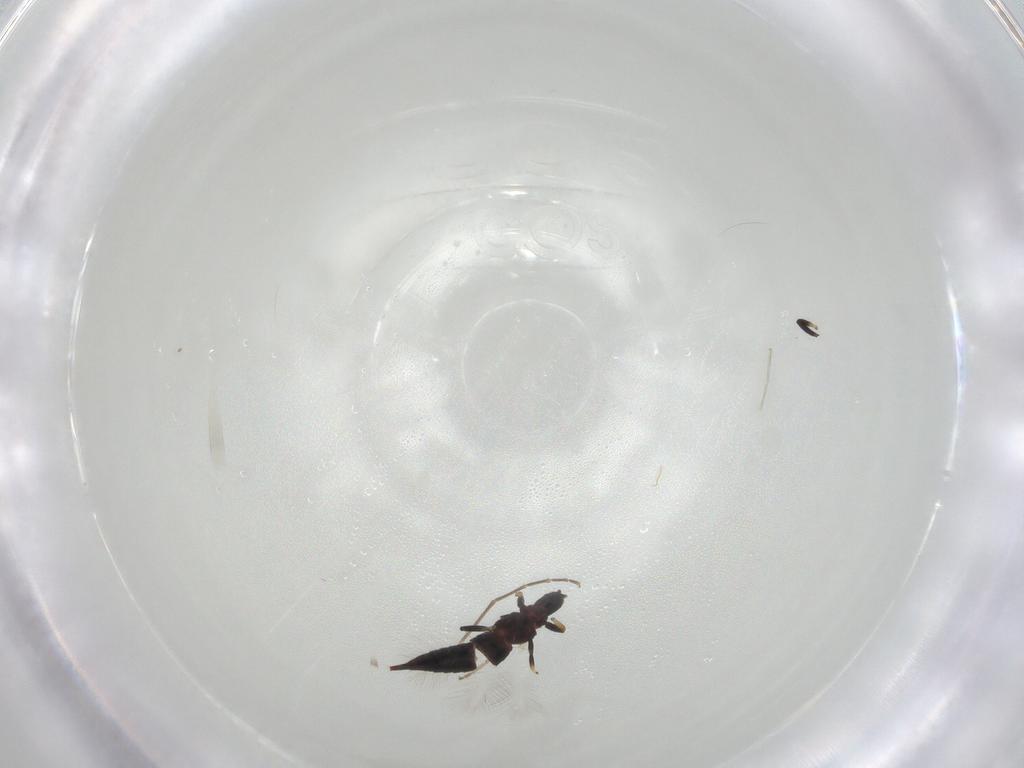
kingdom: Animalia
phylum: Arthropoda
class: Insecta
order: Thysanoptera
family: Phlaeothripidae
